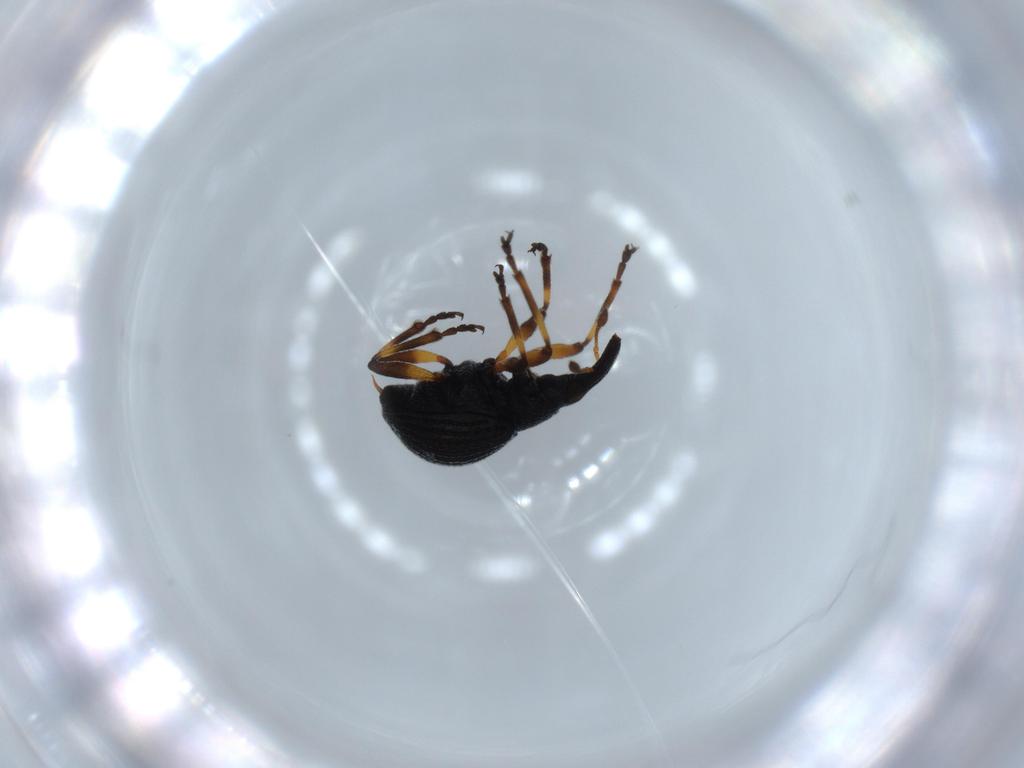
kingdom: Animalia
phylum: Arthropoda
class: Insecta
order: Coleoptera
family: Brentidae
